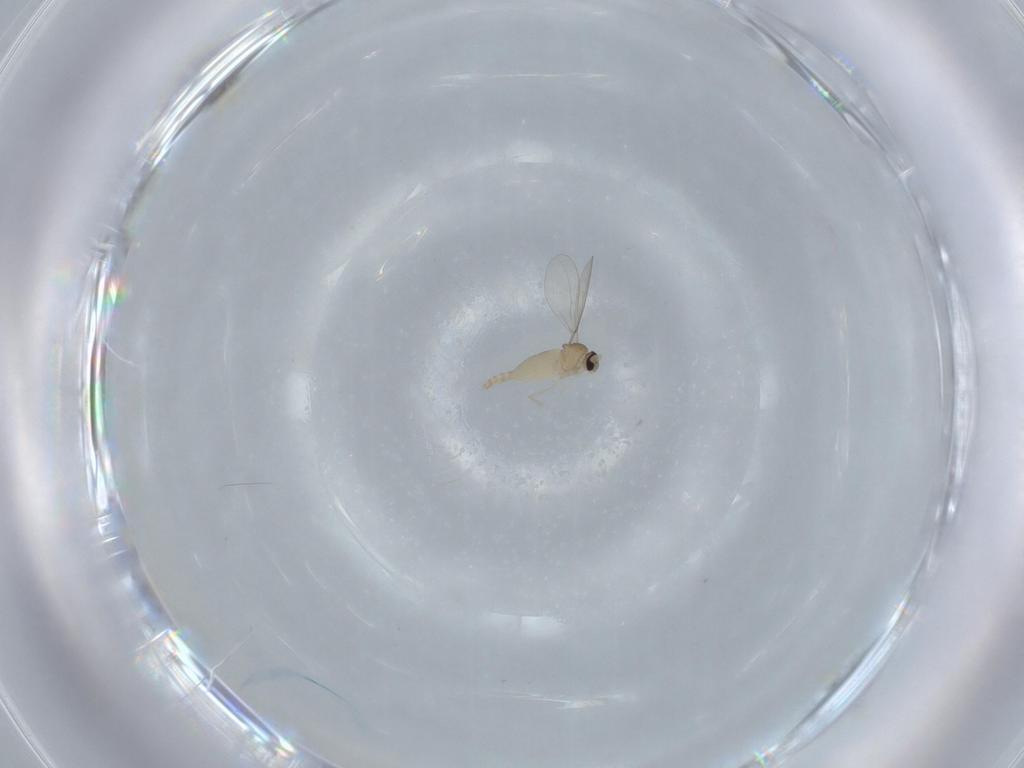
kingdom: Animalia
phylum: Arthropoda
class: Insecta
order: Diptera
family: Cecidomyiidae
